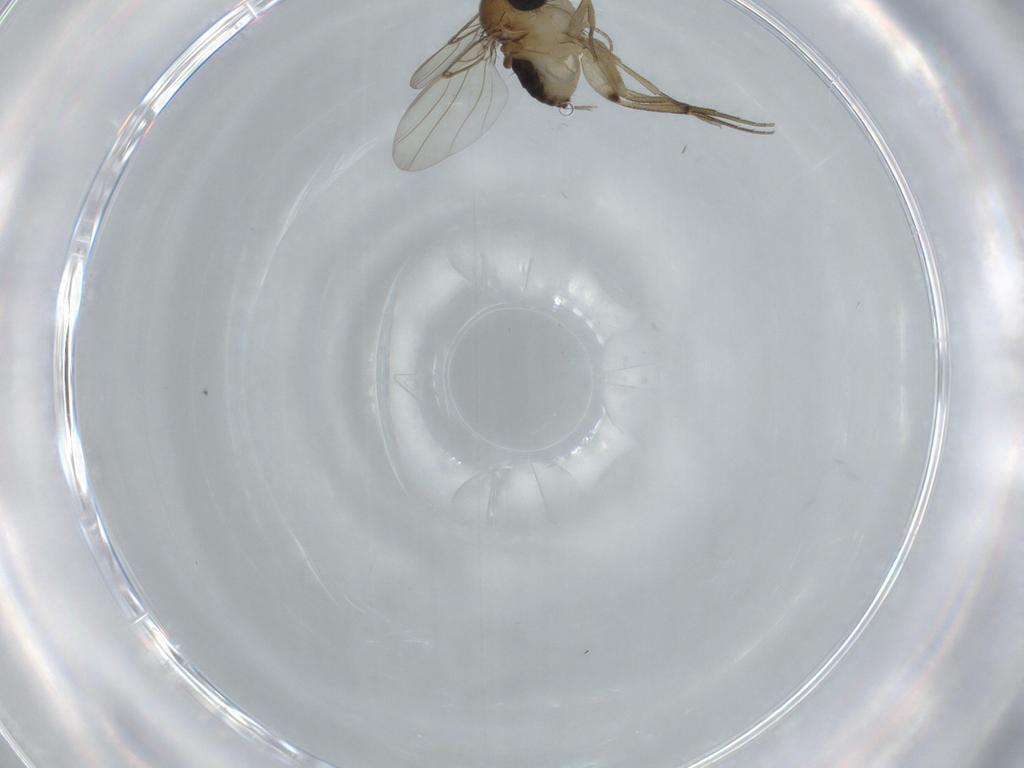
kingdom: Animalia
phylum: Arthropoda
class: Insecta
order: Diptera
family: Phoridae
